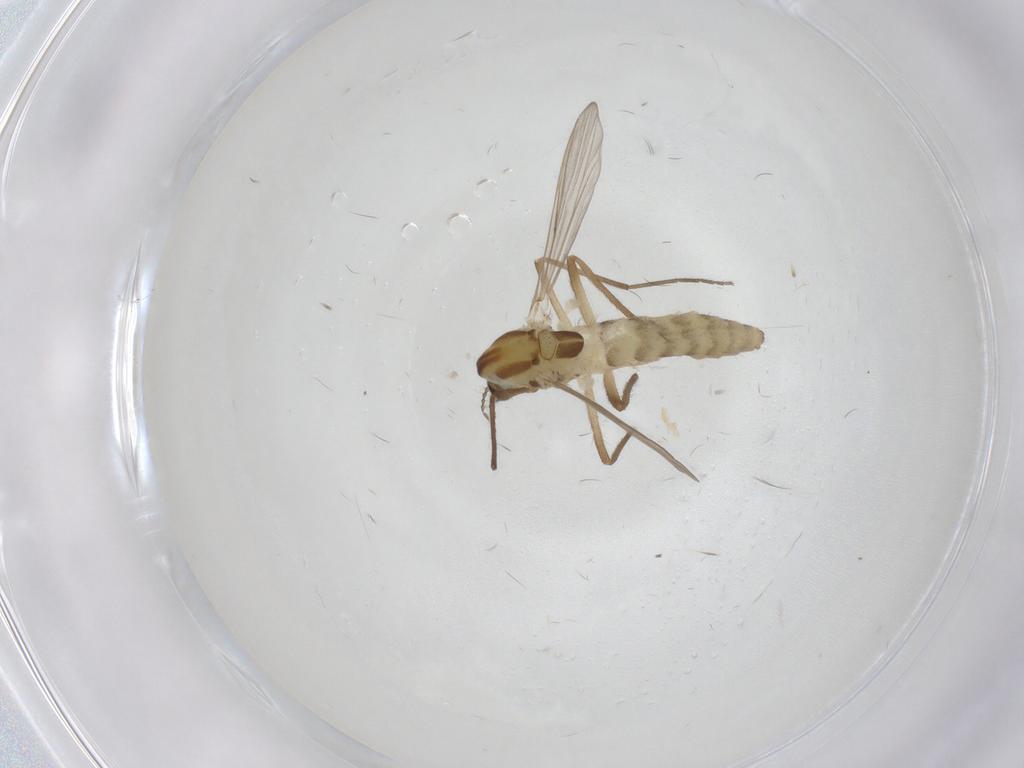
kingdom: Animalia
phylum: Arthropoda
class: Insecta
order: Diptera
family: Chironomidae
